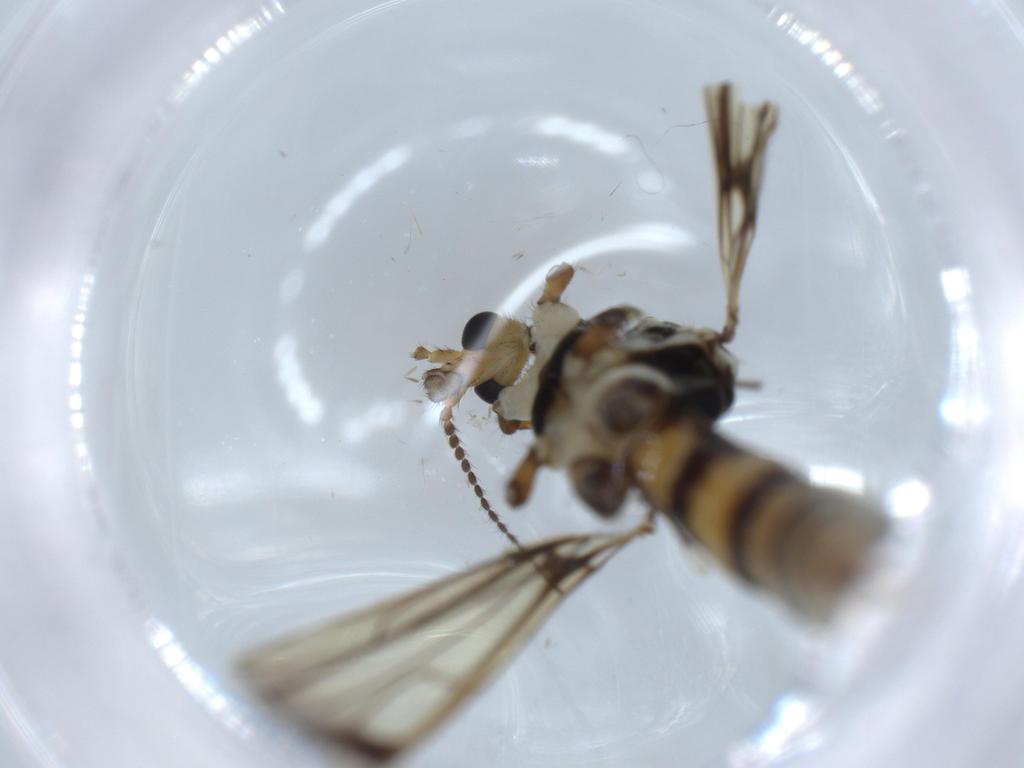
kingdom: Animalia
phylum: Arthropoda
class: Insecta
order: Diptera
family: Limoniidae
